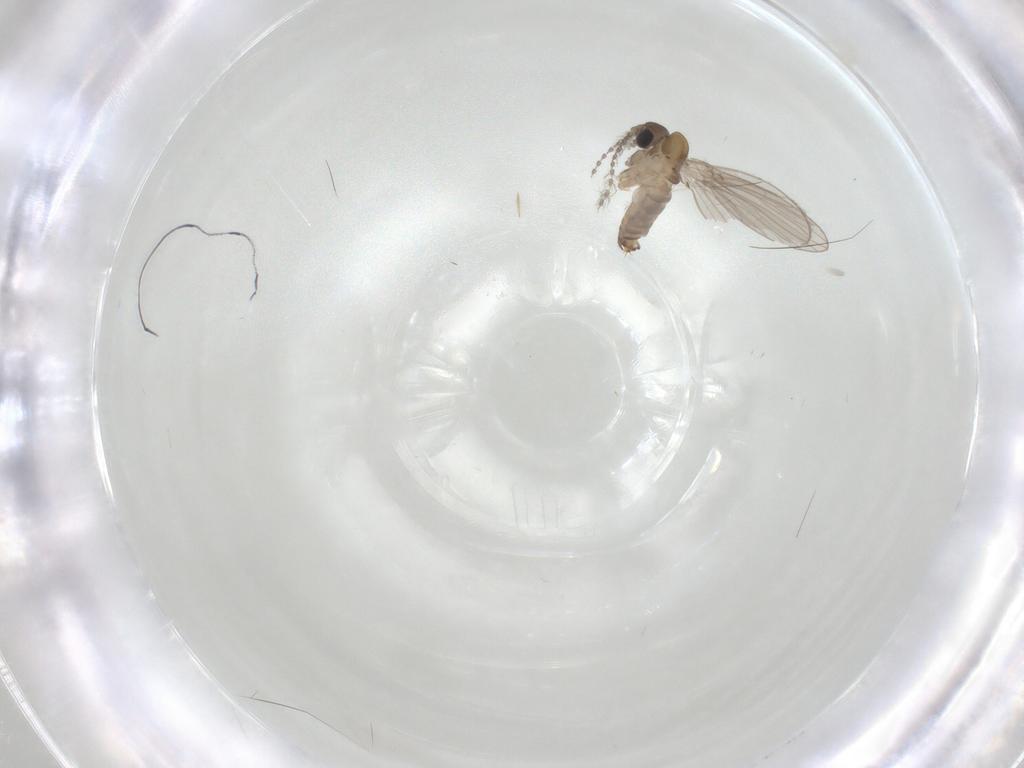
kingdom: Animalia
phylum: Arthropoda
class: Insecta
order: Diptera
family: Psychodidae
